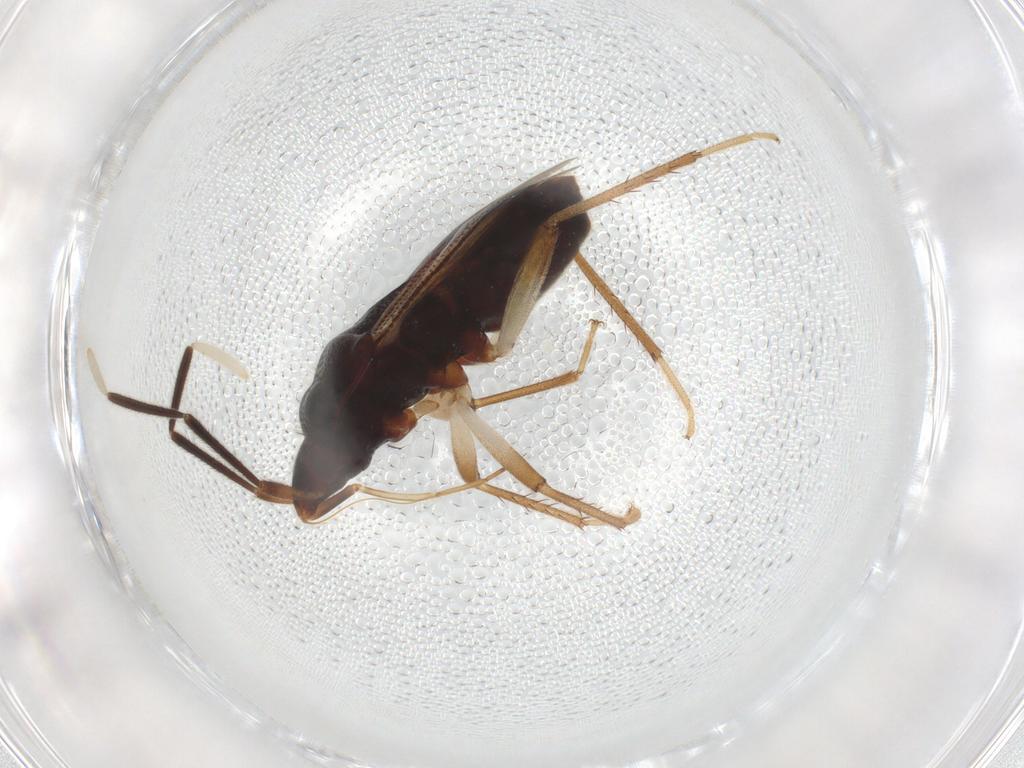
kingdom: Animalia
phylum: Arthropoda
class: Insecta
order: Hemiptera
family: Rhyparochromidae
